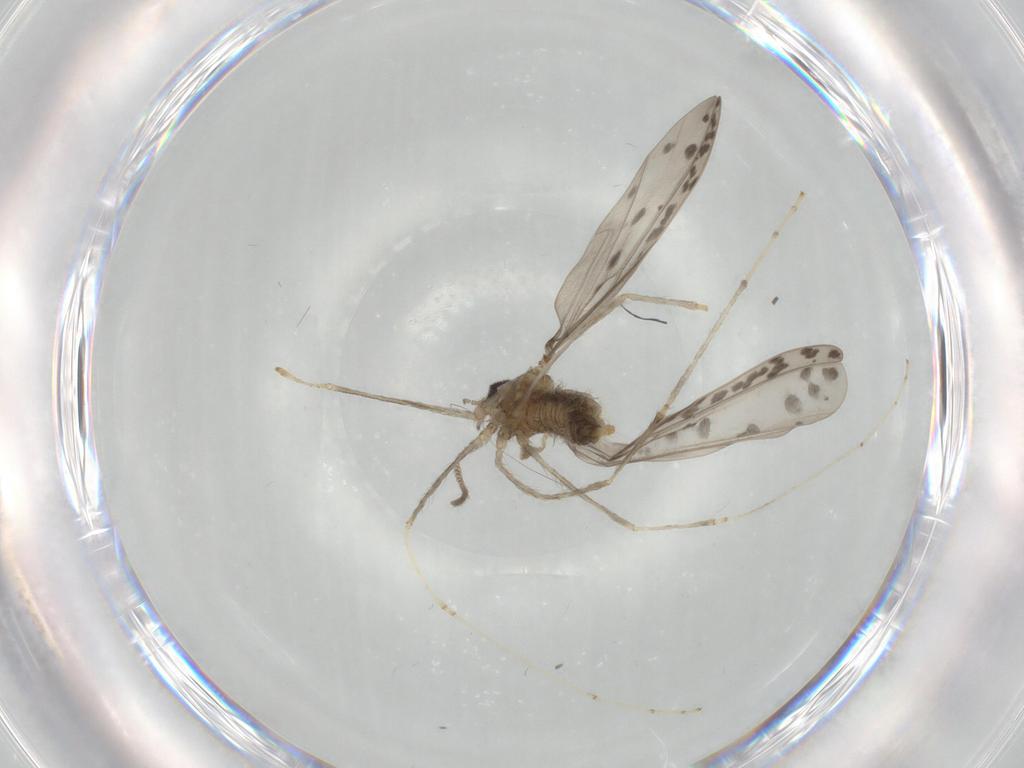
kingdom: Animalia
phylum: Arthropoda
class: Insecta
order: Diptera
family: Cecidomyiidae
